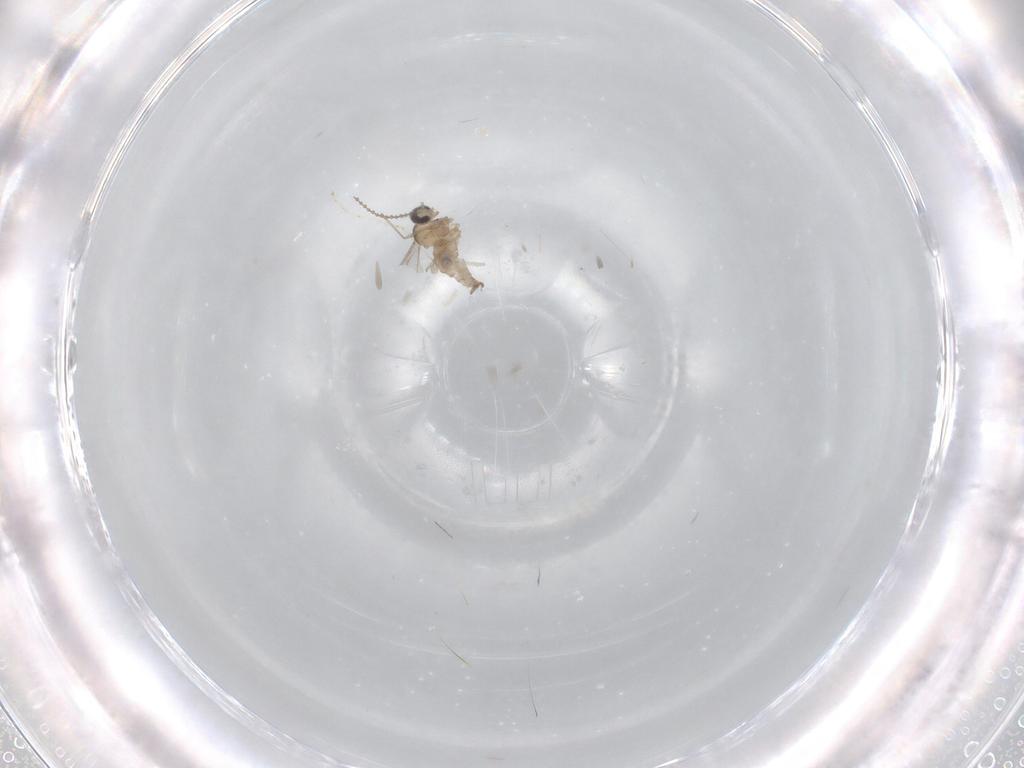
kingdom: Animalia
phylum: Arthropoda
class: Insecta
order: Diptera
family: Cecidomyiidae
